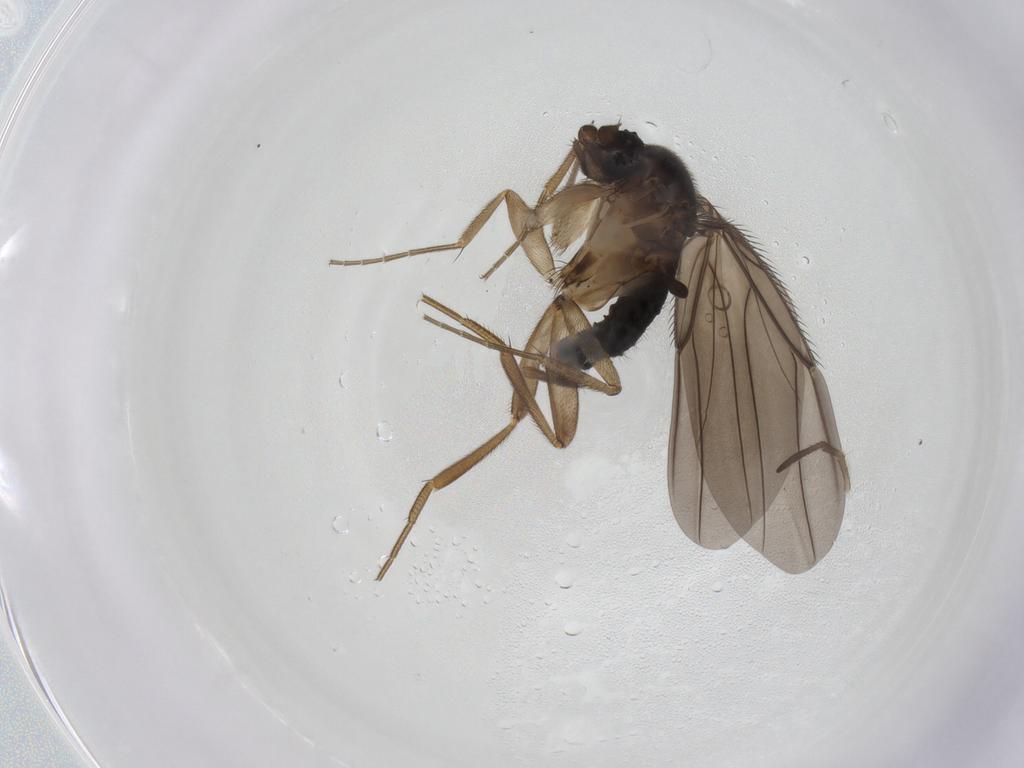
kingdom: Animalia
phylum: Arthropoda
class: Insecta
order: Diptera
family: Phoridae
